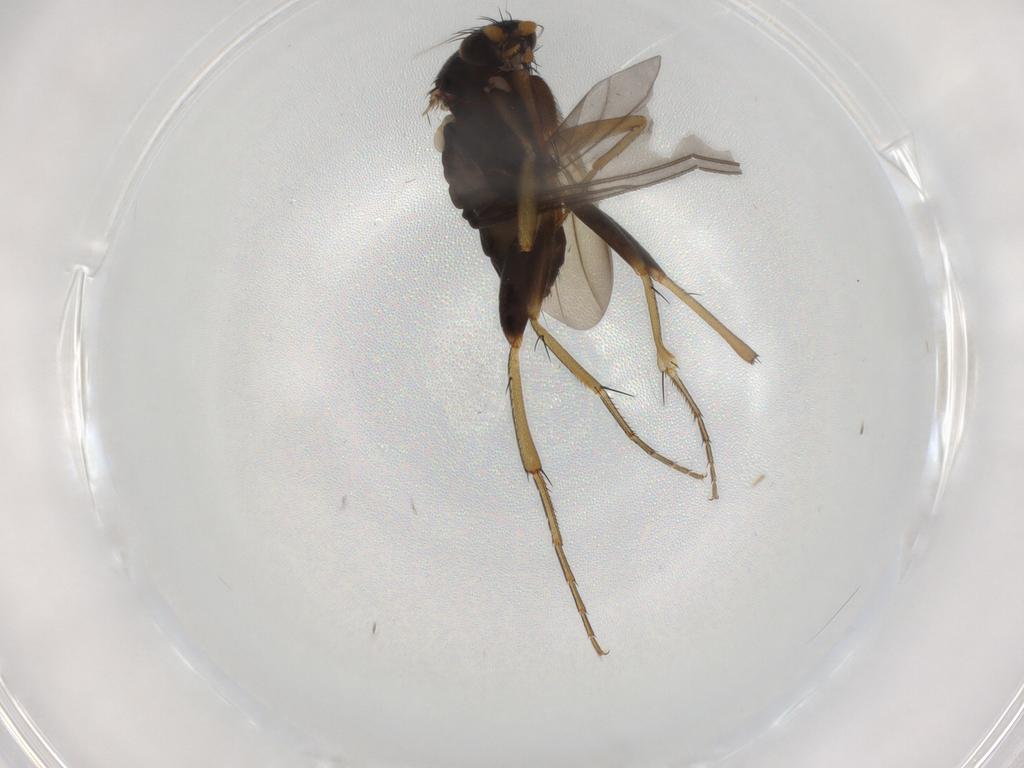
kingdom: Animalia
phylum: Arthropoda
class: Insecta
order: Diptera
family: Phoridae
